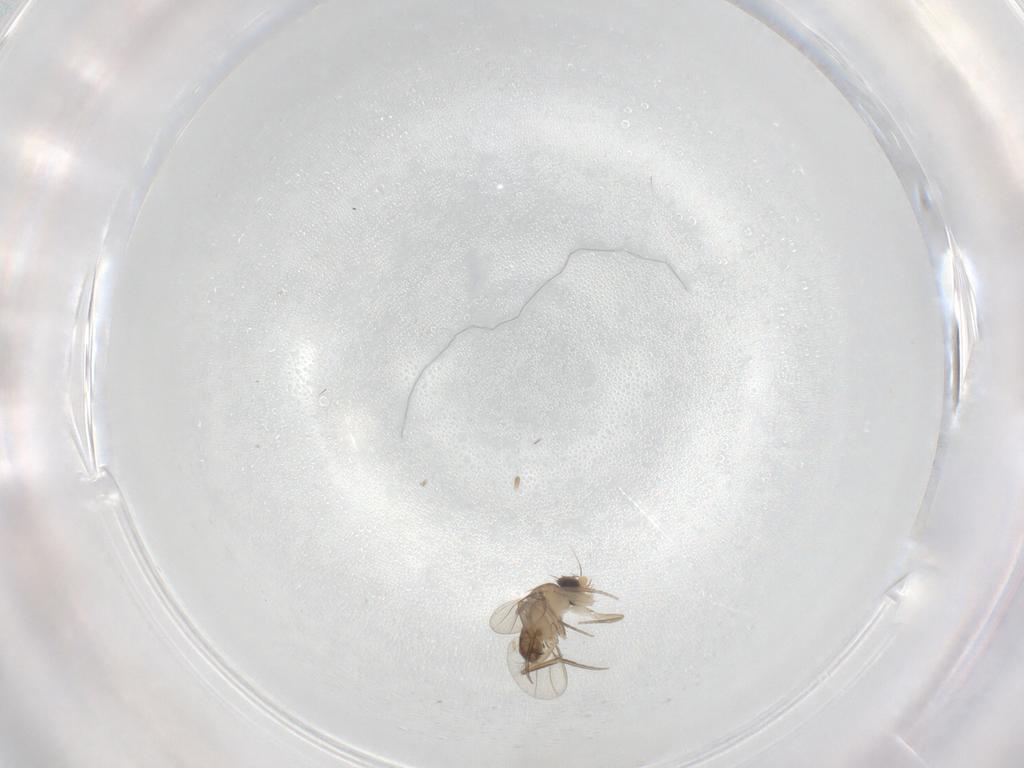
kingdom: Animalia
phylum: Arthropoda
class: Insecta
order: Diptera
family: Phoridae
